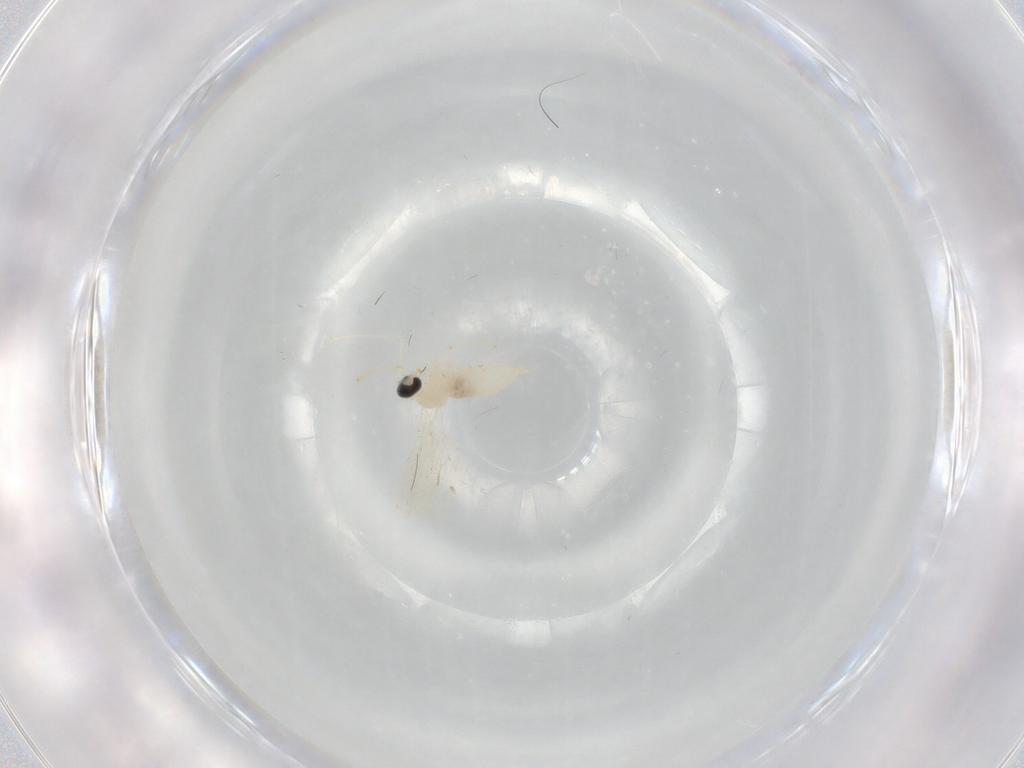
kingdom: Animalia
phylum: Arthropoda
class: Insecta
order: Diptera
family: Cecidomyiidae
